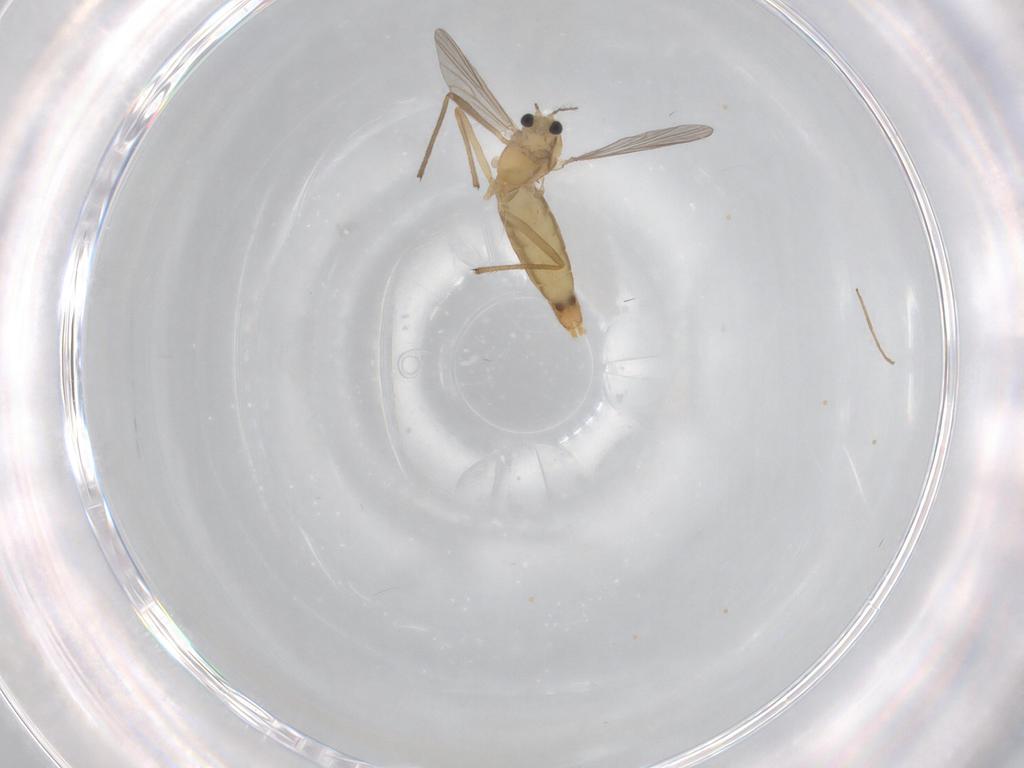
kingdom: Animalia
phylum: Arthropoda
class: Insecta
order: Diptera
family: Chironomidae
